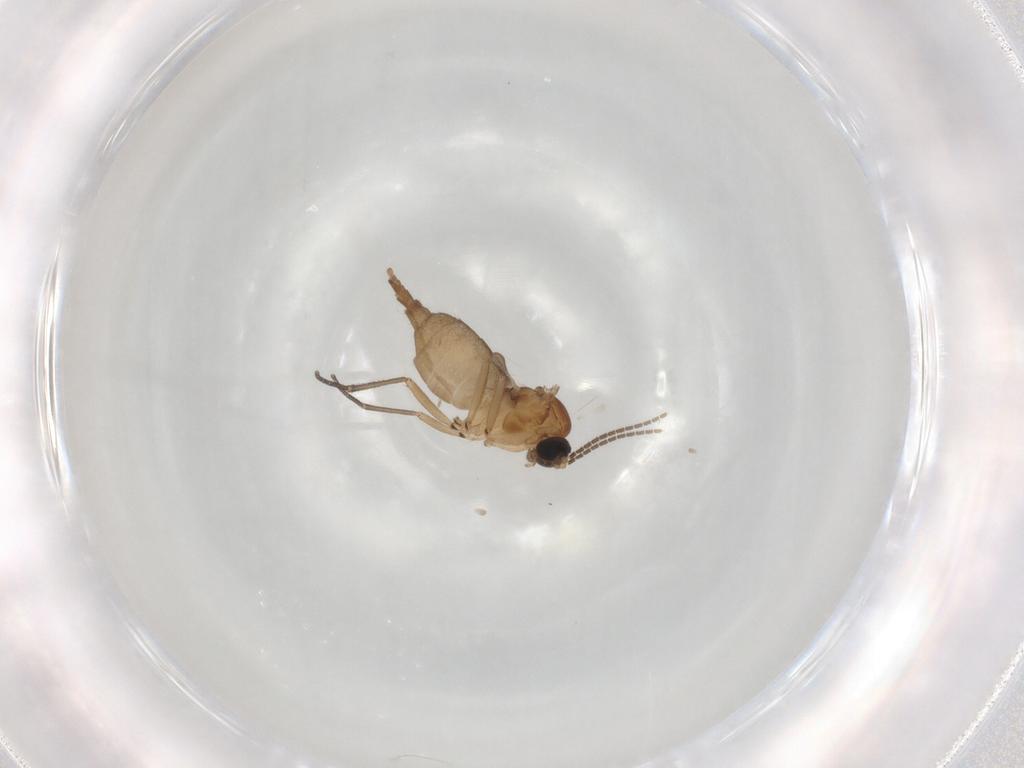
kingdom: Animalia
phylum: Arthropoda
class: Insecta
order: Diptera
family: Sciaridae
